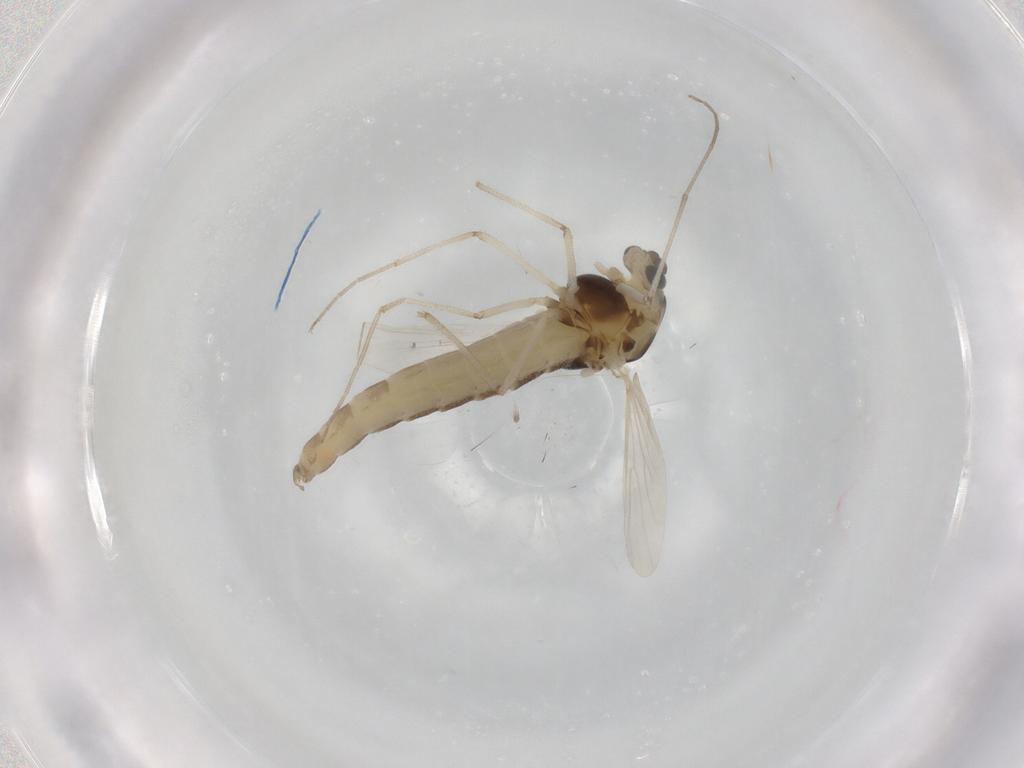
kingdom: Animalia
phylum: Arthropoda
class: Insecta
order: Diptera
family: Chironomidae
